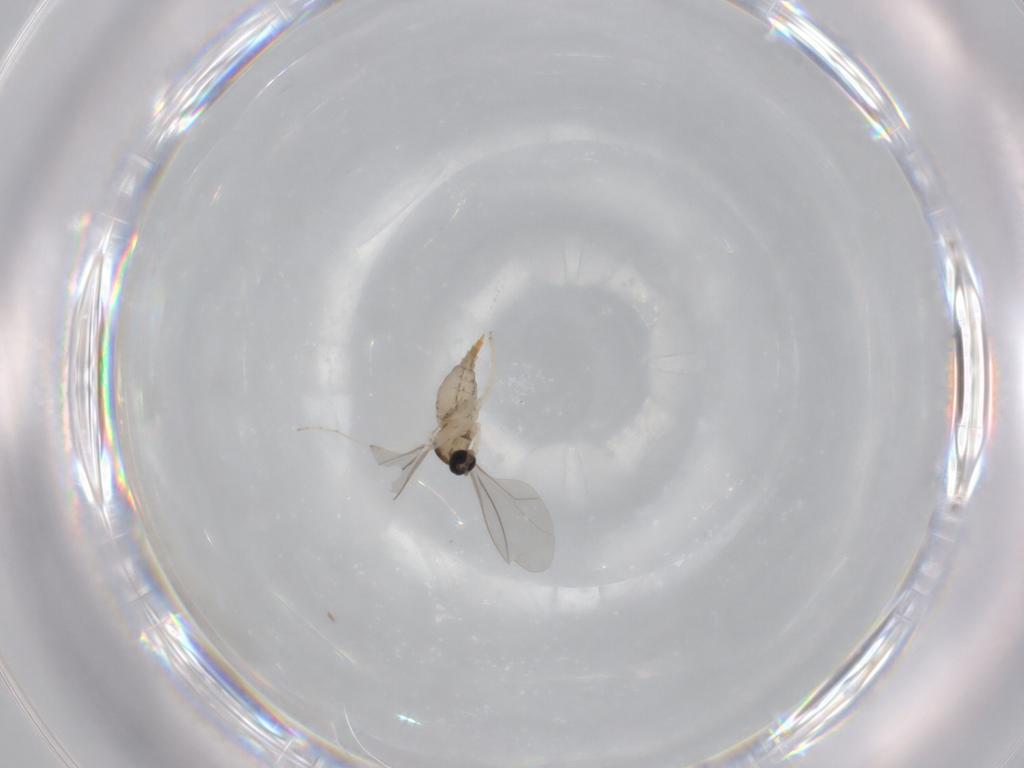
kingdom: Animalia
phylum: Arthropoda
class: Insecta
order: Diptera
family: Cecidomyiidae
